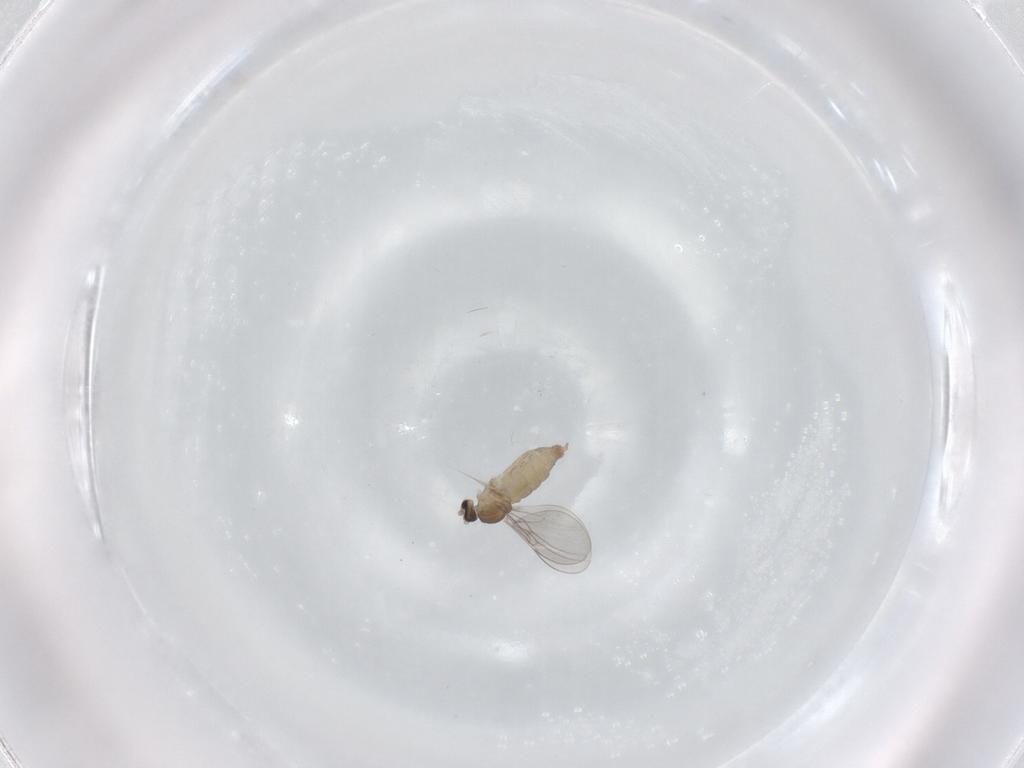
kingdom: Animalia
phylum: Arthropoda
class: Insecta
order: Diptera
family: Cecidomyiidae
